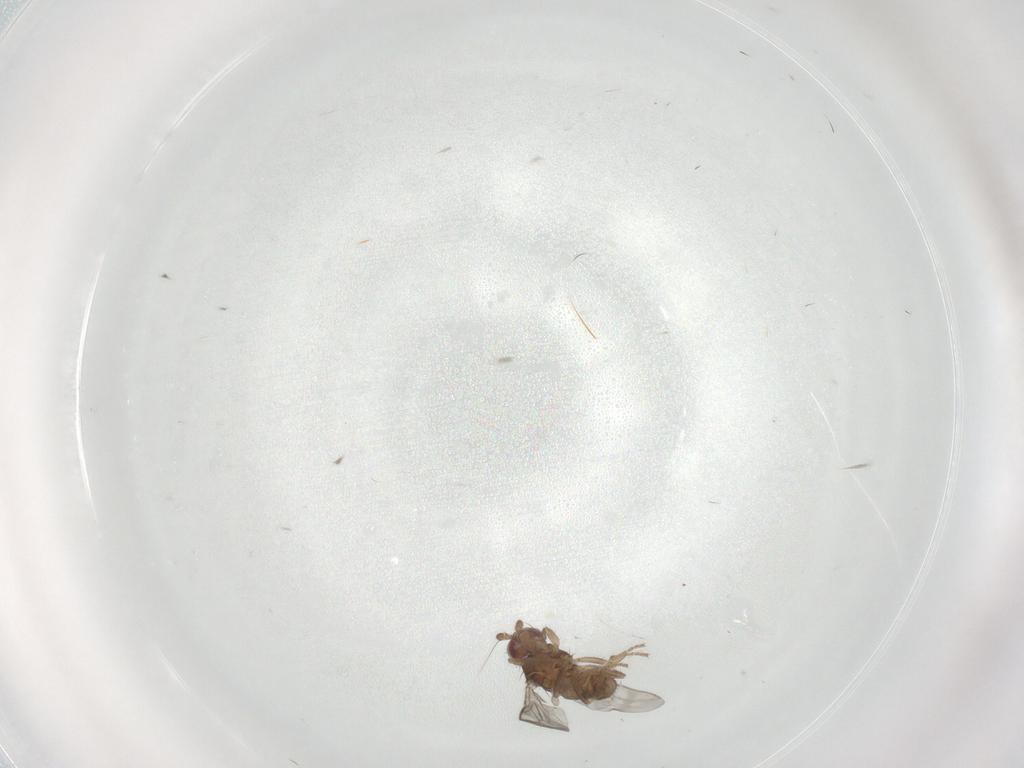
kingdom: Animalia
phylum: Arthropoda
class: Insecta
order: Diptera
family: Sphaeroceridae
